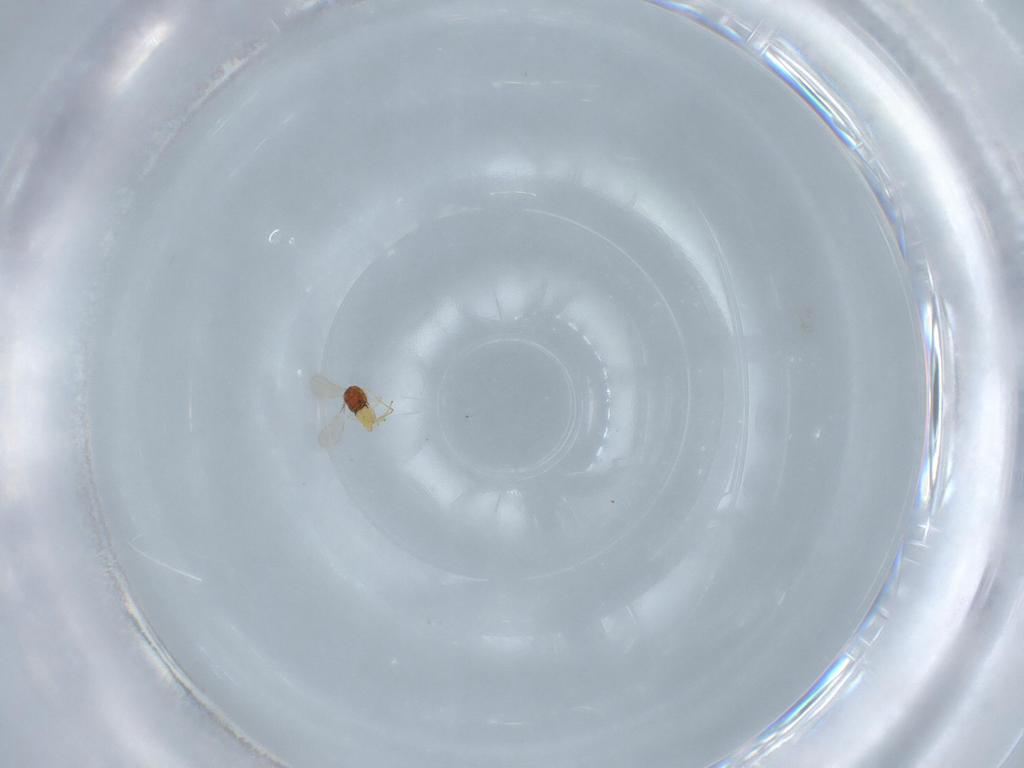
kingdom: Animalia
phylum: Arthropoda
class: Insecta
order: Hymenoptera
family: Aphelinidae
